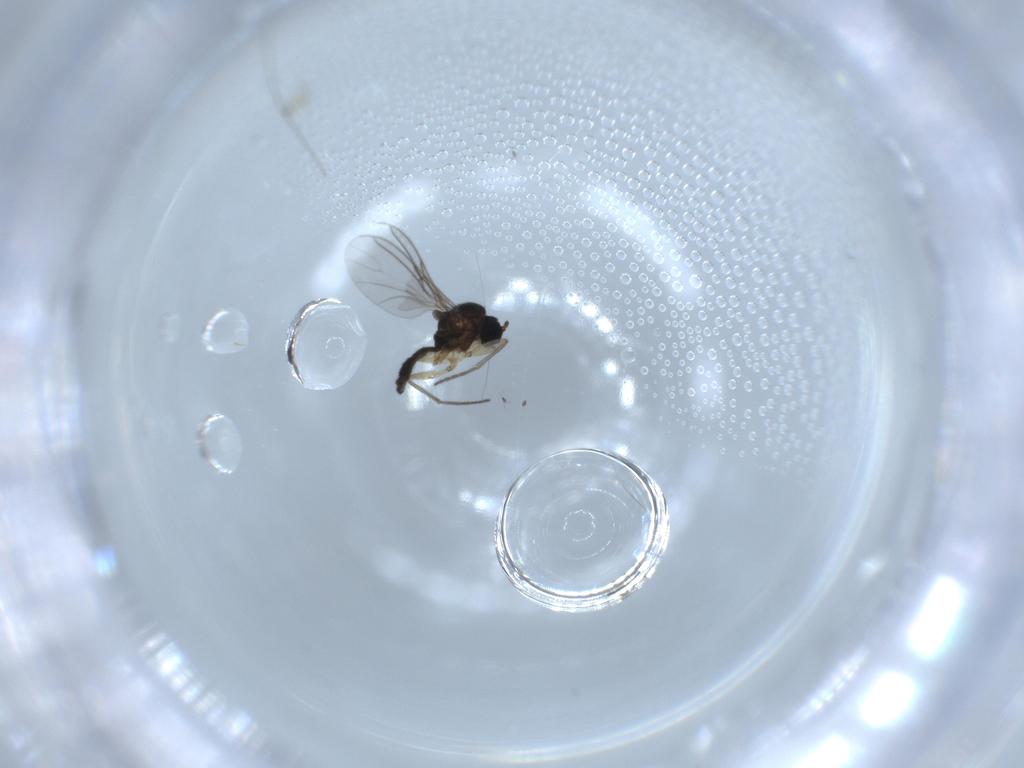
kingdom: Animalia
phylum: Arthropoda
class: Insecta
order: Diptera
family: Sciaridae
